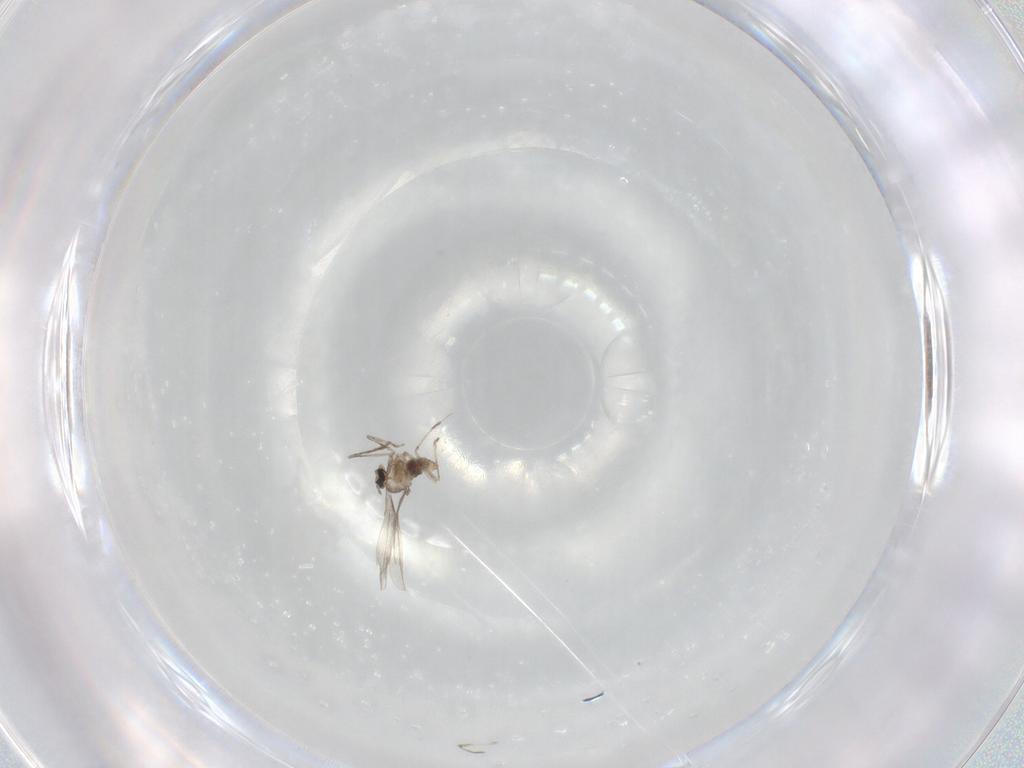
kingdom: Animalia
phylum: Arthropoda
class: Insecta
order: Diptera
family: Cecidomyiidae
